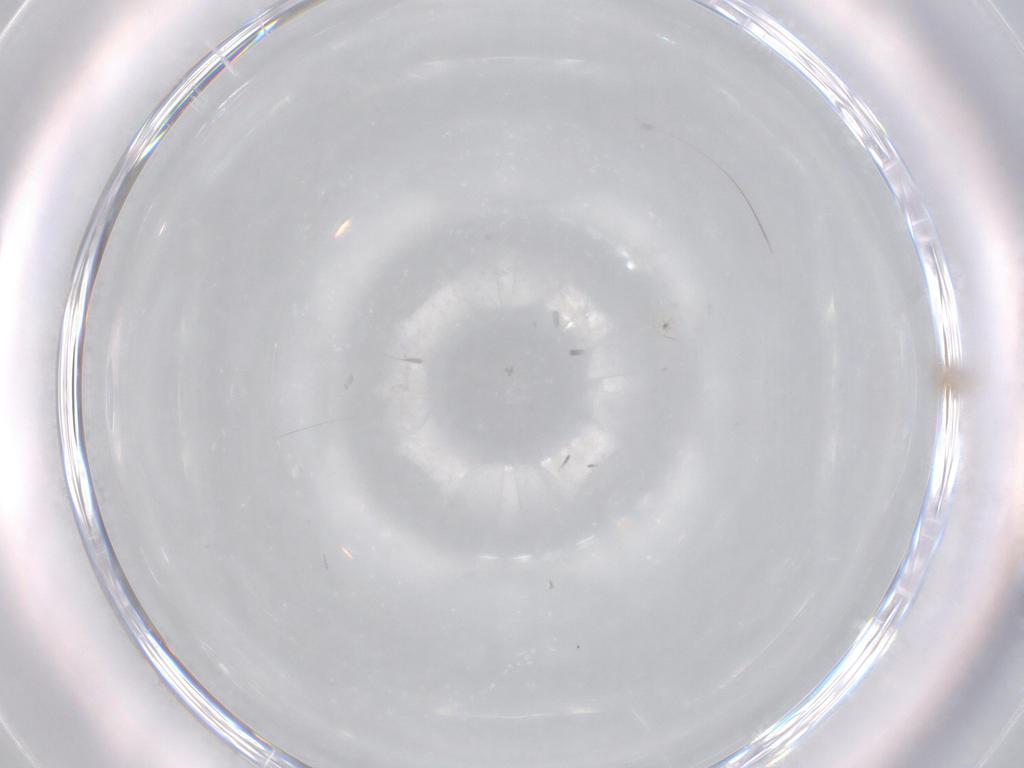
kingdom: Animalia
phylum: Arthropoda
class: Insecta
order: Diptera
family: Cecidomyiidae
